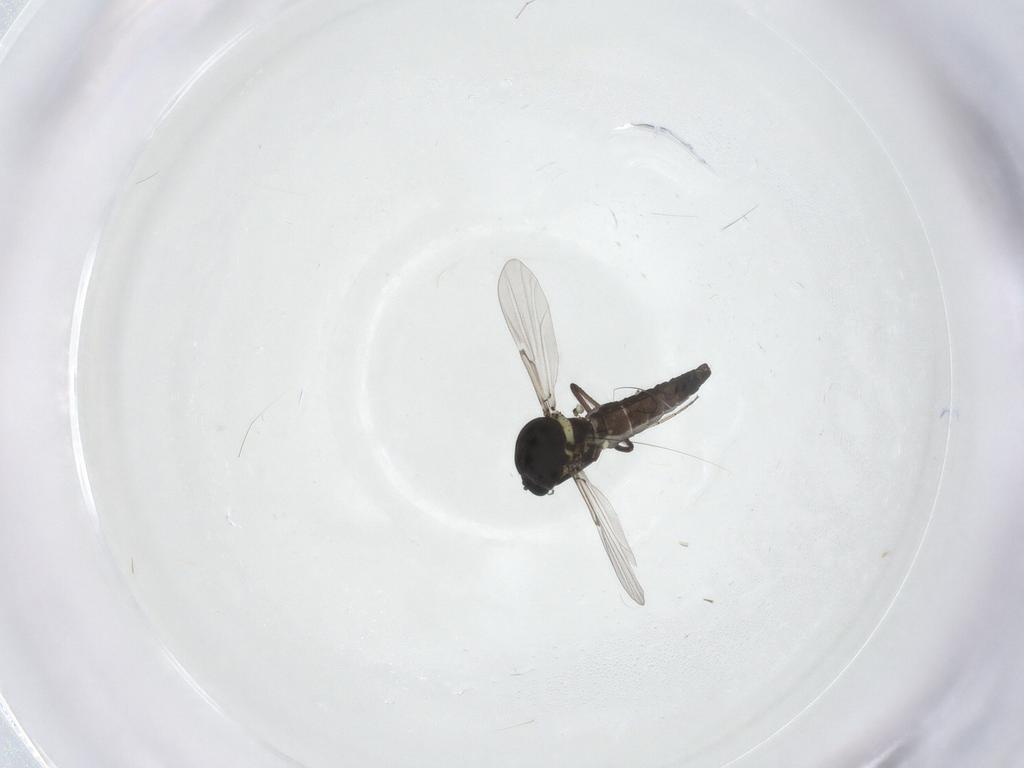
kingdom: Animalia
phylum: Arthropoda
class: Insecta
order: Diptera
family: Ceratopogonidae
